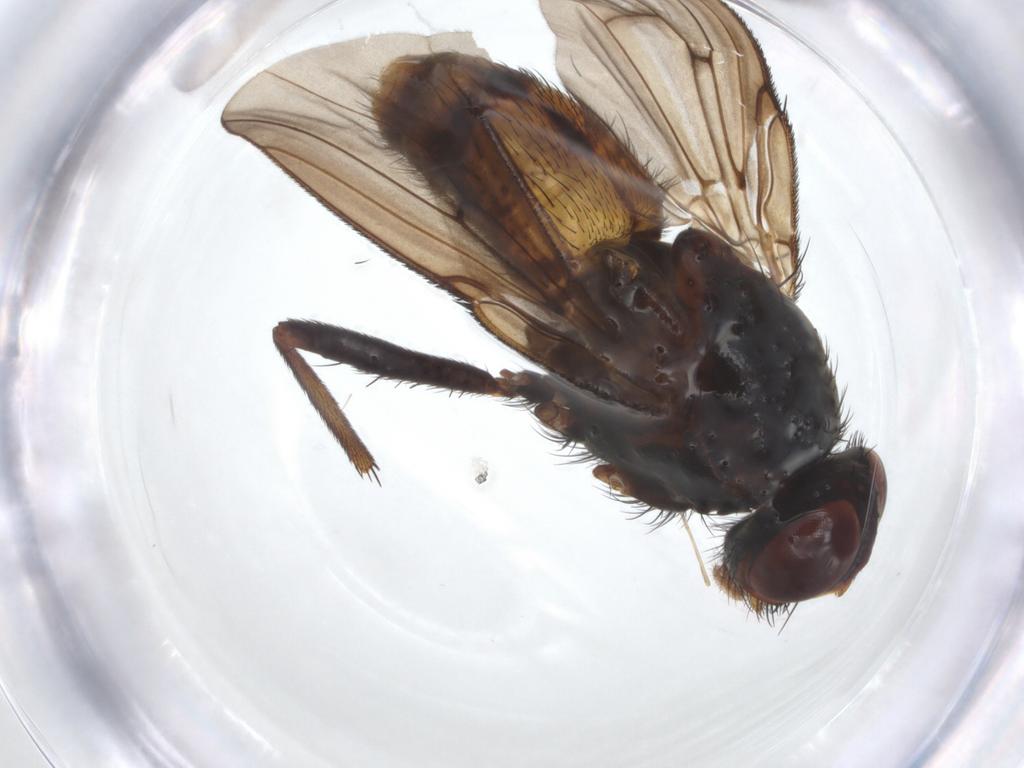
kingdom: Animalia
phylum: Arthropoda
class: Insecta
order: Diptera
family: Muscidae
